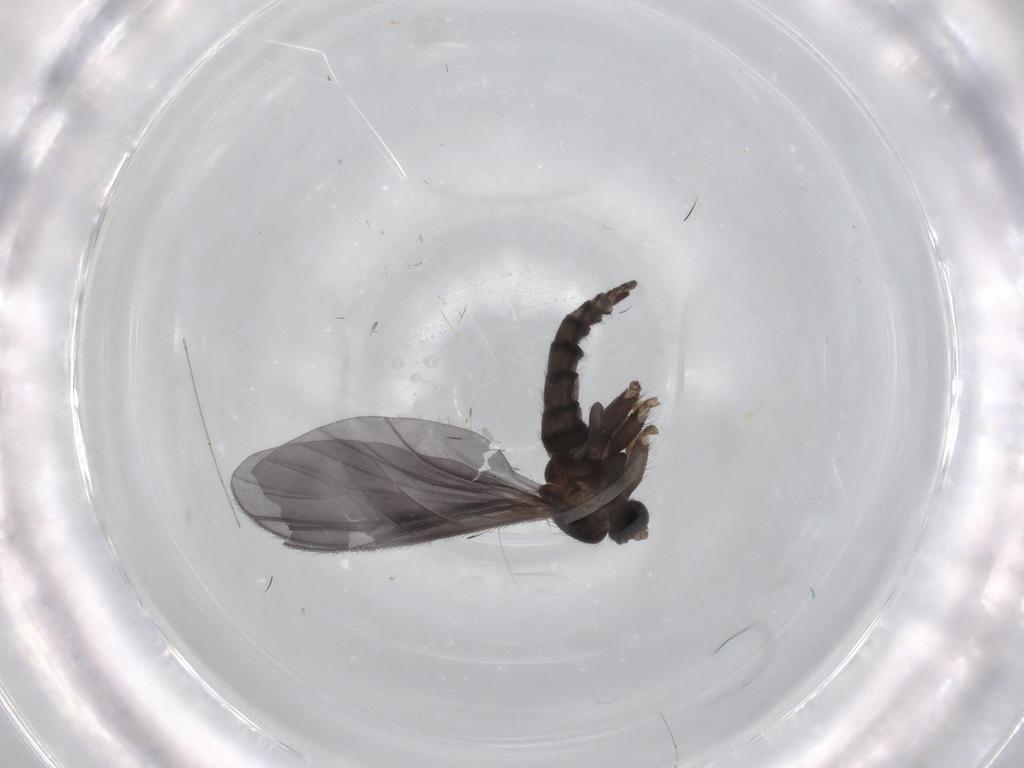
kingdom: Animalia
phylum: Arthropoda
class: Insecta
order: Diptera
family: Sciaridae
